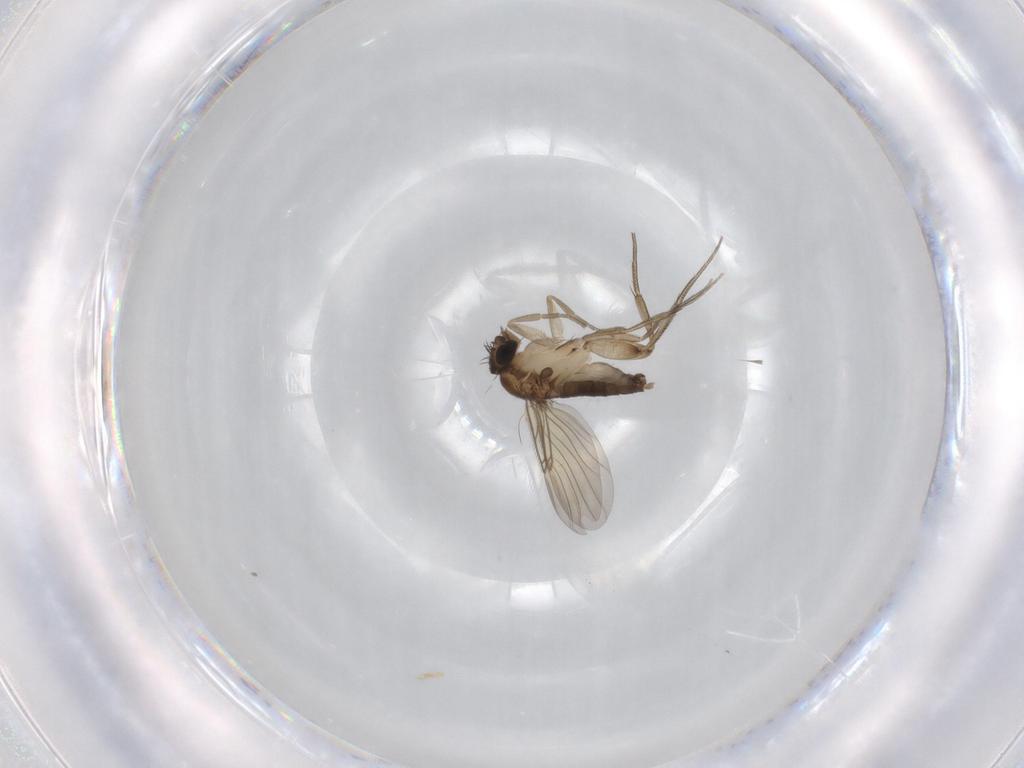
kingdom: Animalia
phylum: Arthropoda
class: Insecta
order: Diptera
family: Phoridae
